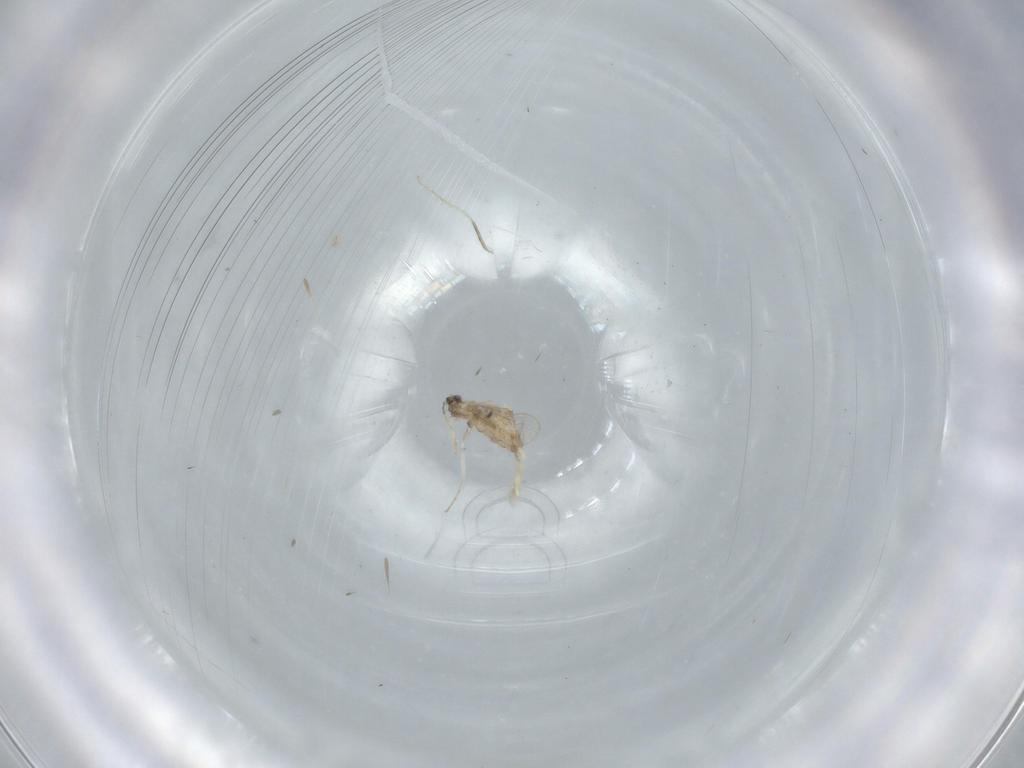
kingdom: Animalia
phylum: Arthropoda
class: Insecta
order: Diptera
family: Cecidomyiidae
